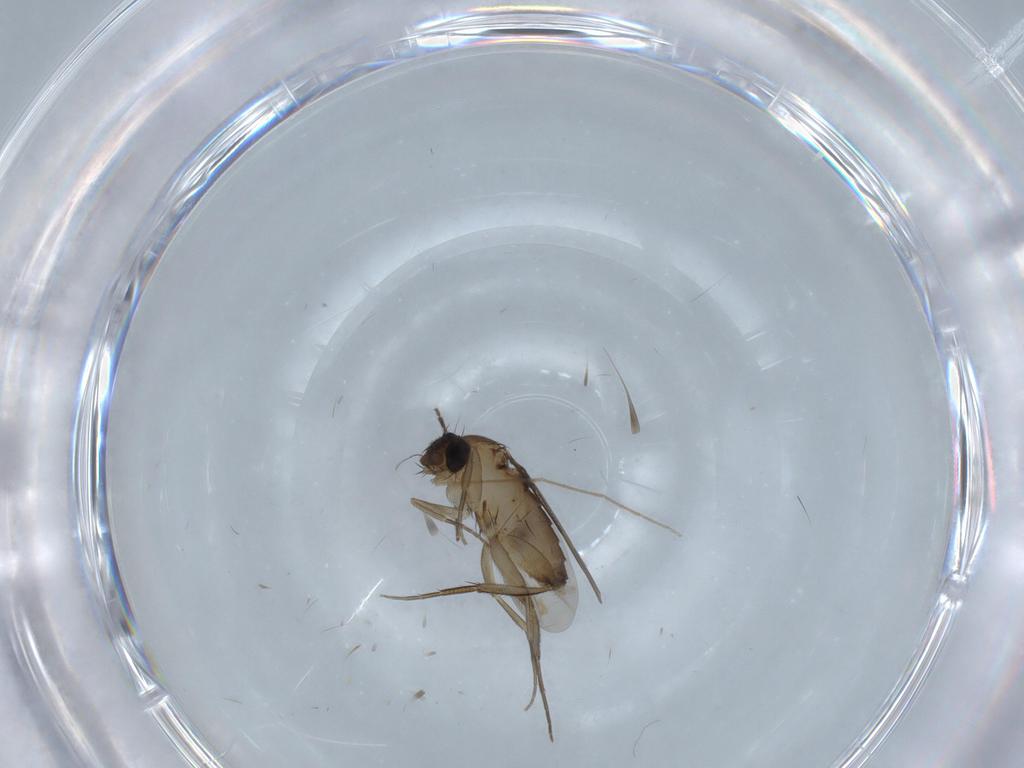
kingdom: Animalia
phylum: Arthropoda
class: Insecta
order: Diptera
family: Phoridae
